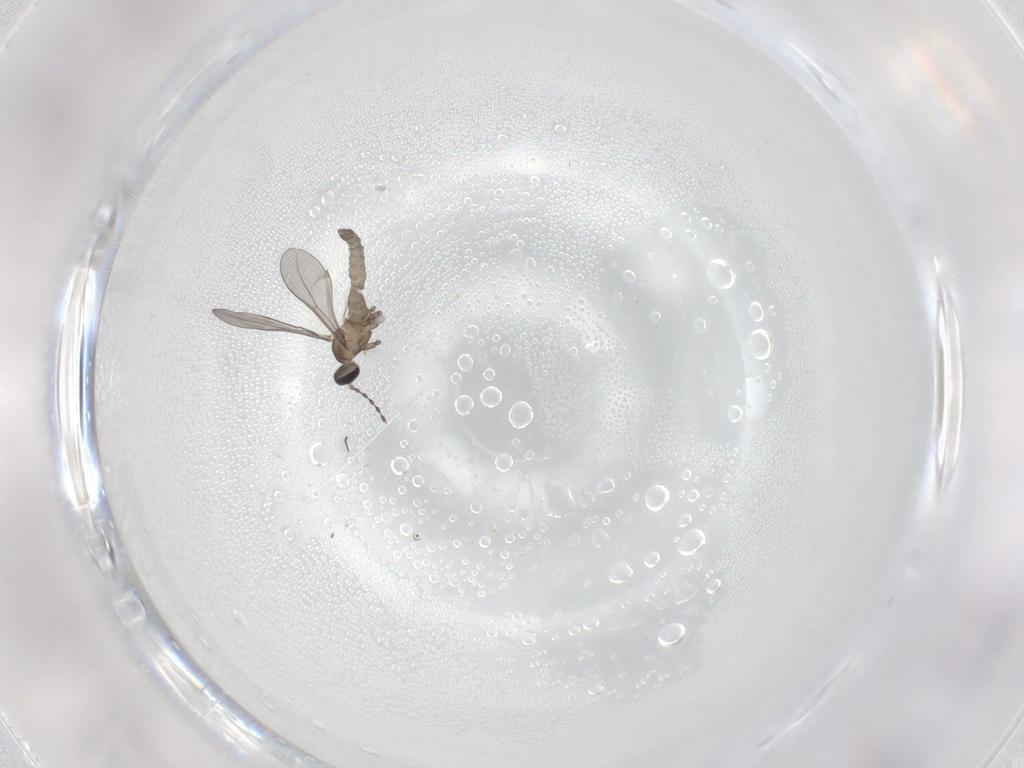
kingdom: Animalia
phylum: Arthropoda
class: Insecta
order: Diptera
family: Cecidomyiidae
